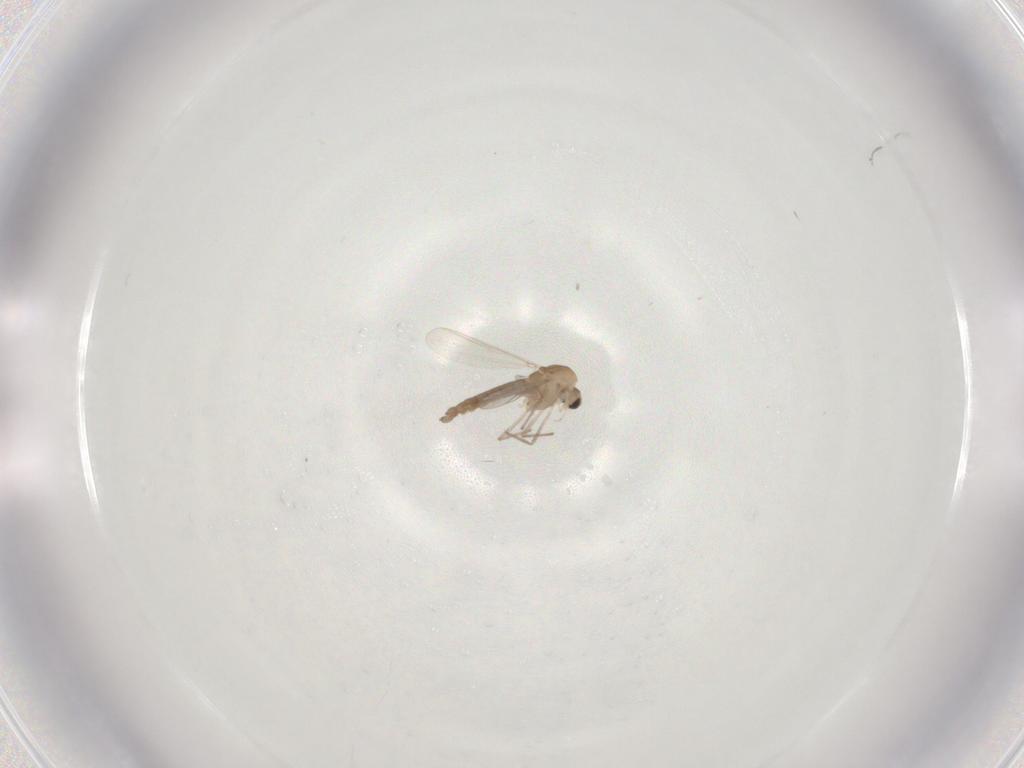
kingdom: Animalia
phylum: Arthropoda
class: Insecta
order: Diptera
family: Cecidomyiidae
